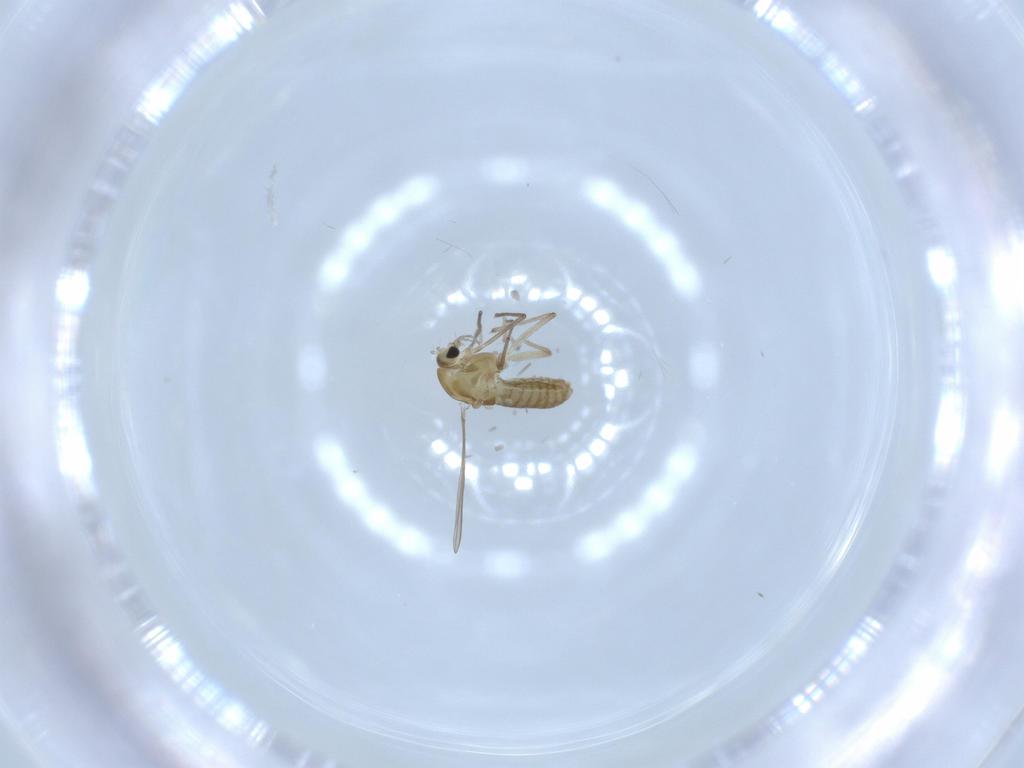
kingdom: Animalia
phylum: Arthropoda
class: Insecta
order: Diptera
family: Chironomidae
